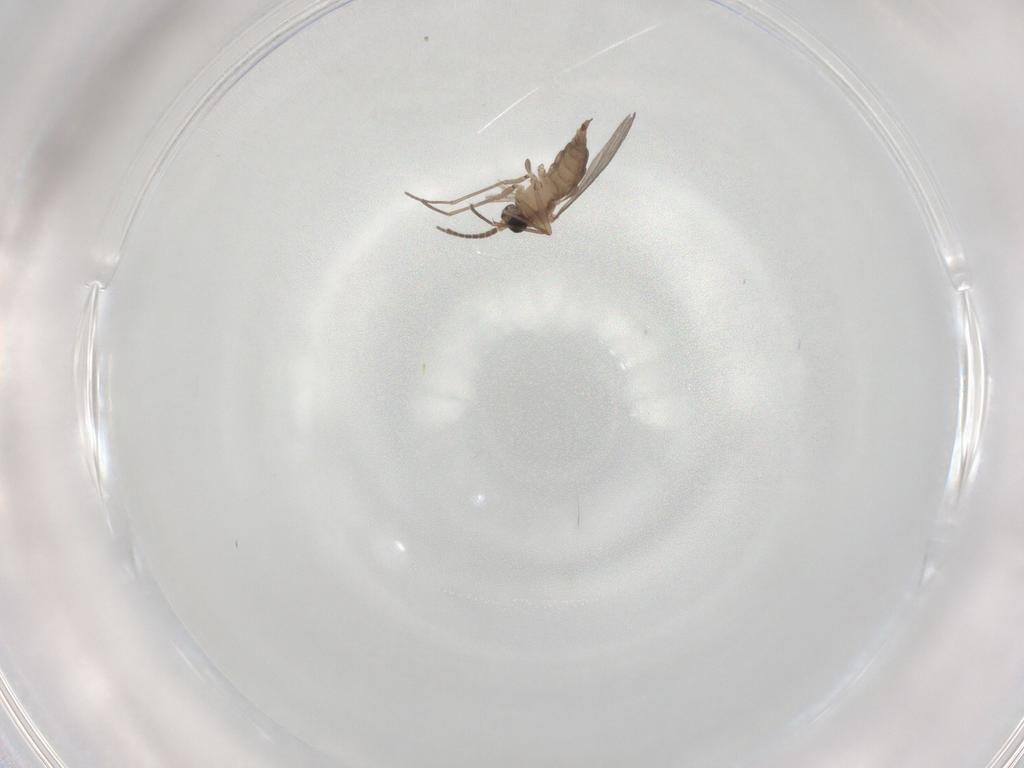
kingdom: Animalia
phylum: Arthropoda
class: Insecta
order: Diptera
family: Sciaridae
